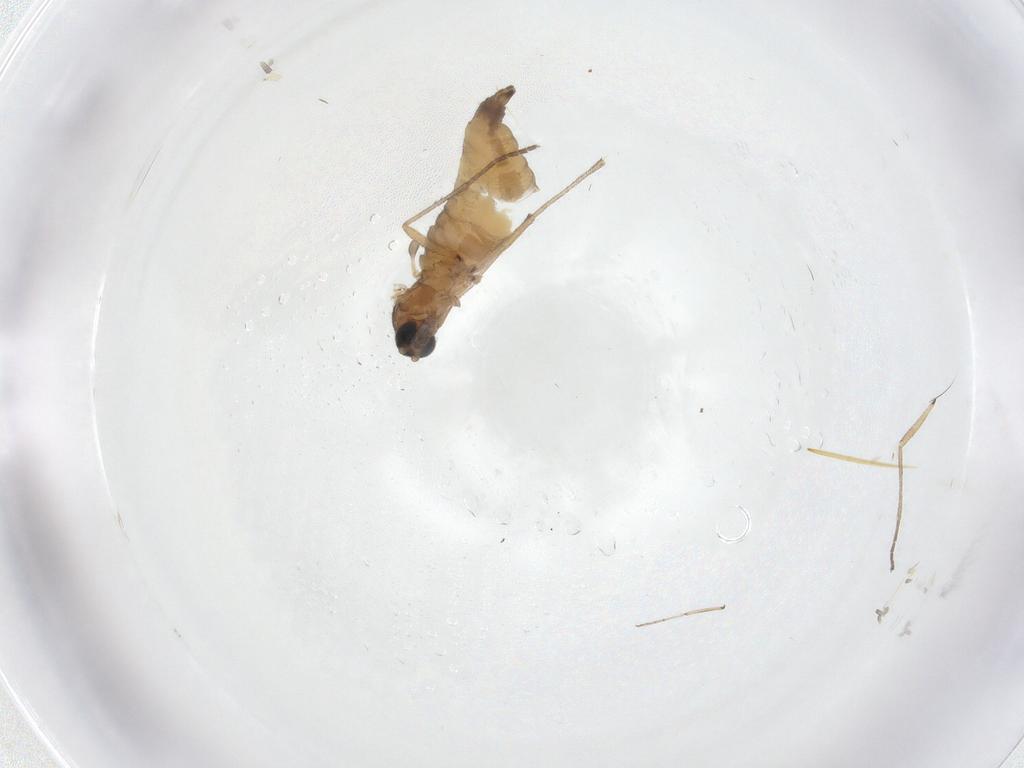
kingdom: Animalia
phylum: Arthropoda
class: Insecta
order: Diptera
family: Sciaridae
